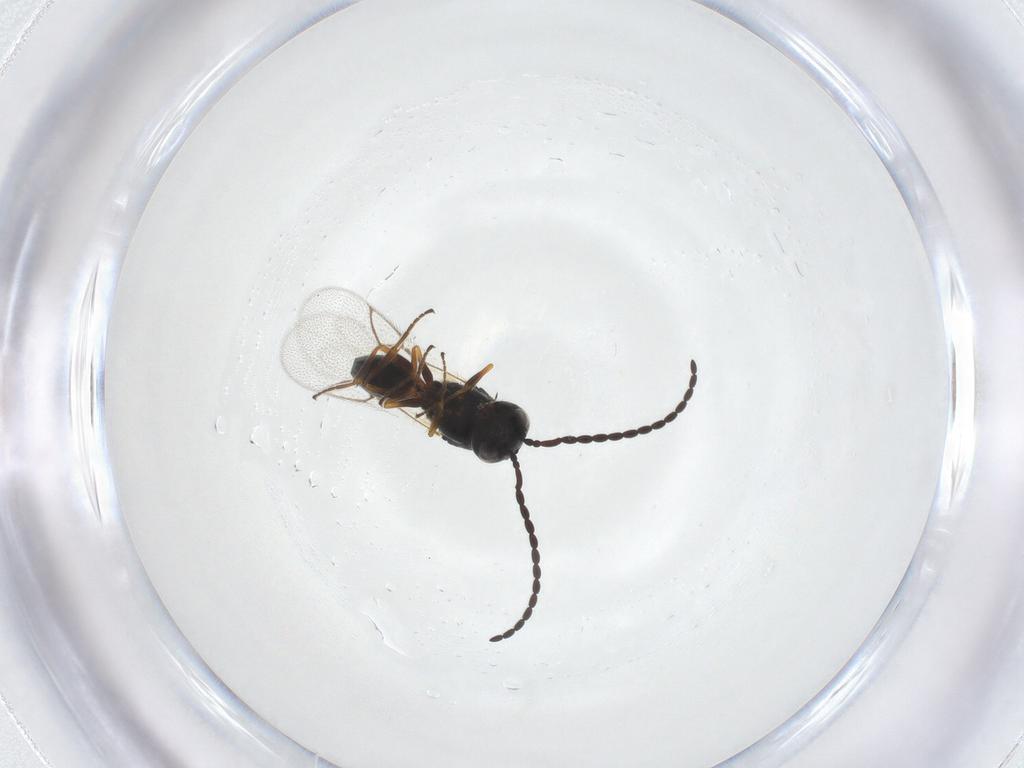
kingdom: Animalia
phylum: Arthropoda
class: Insecta
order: Hymenoptera
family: Figitidae
